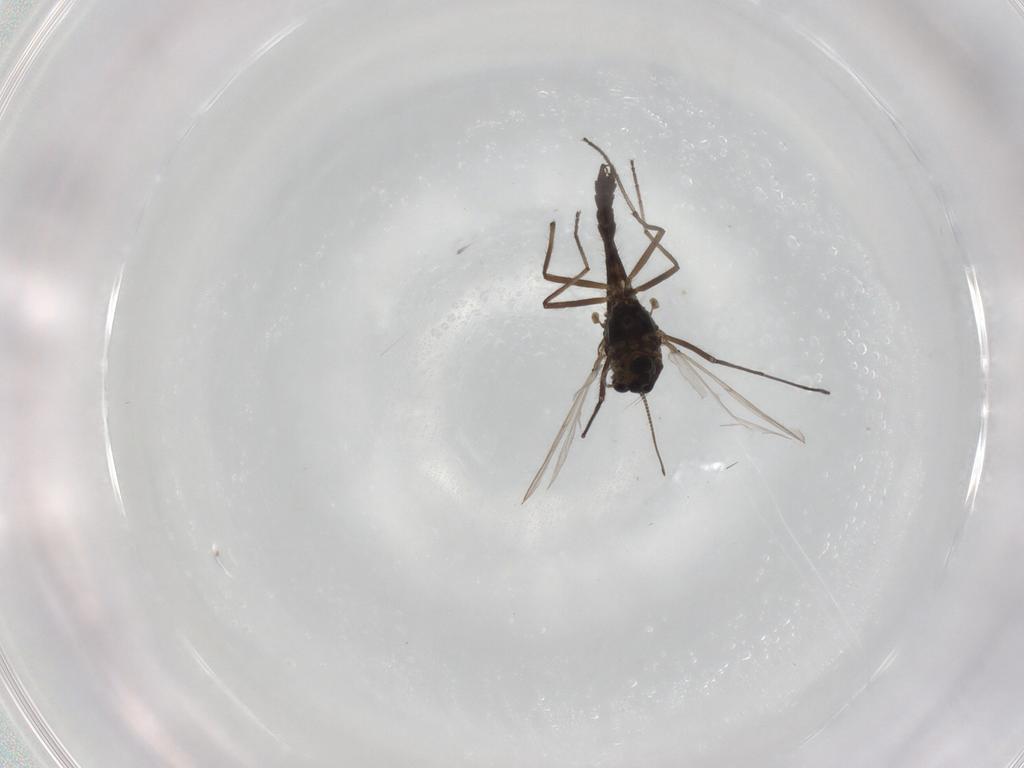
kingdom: Animalia
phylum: Arthropoda
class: Insecta
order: Diptera
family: Chironomidae
